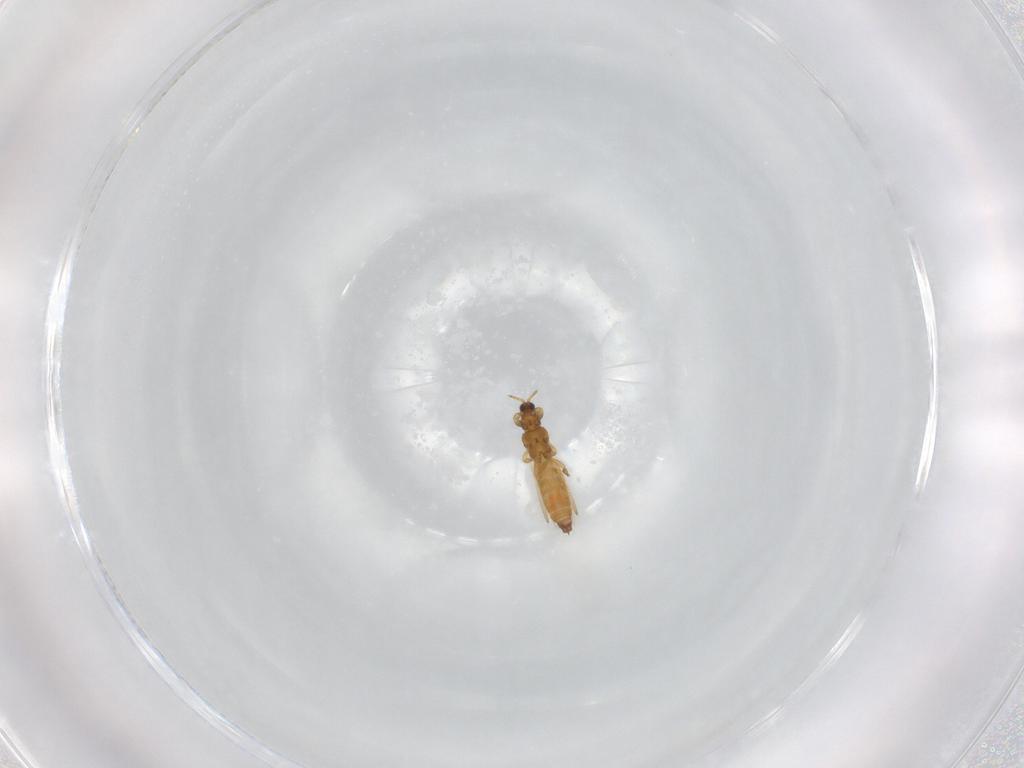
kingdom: Animalia
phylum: Arthropoda
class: Insecta
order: Thysanoptera
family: Thripidae
